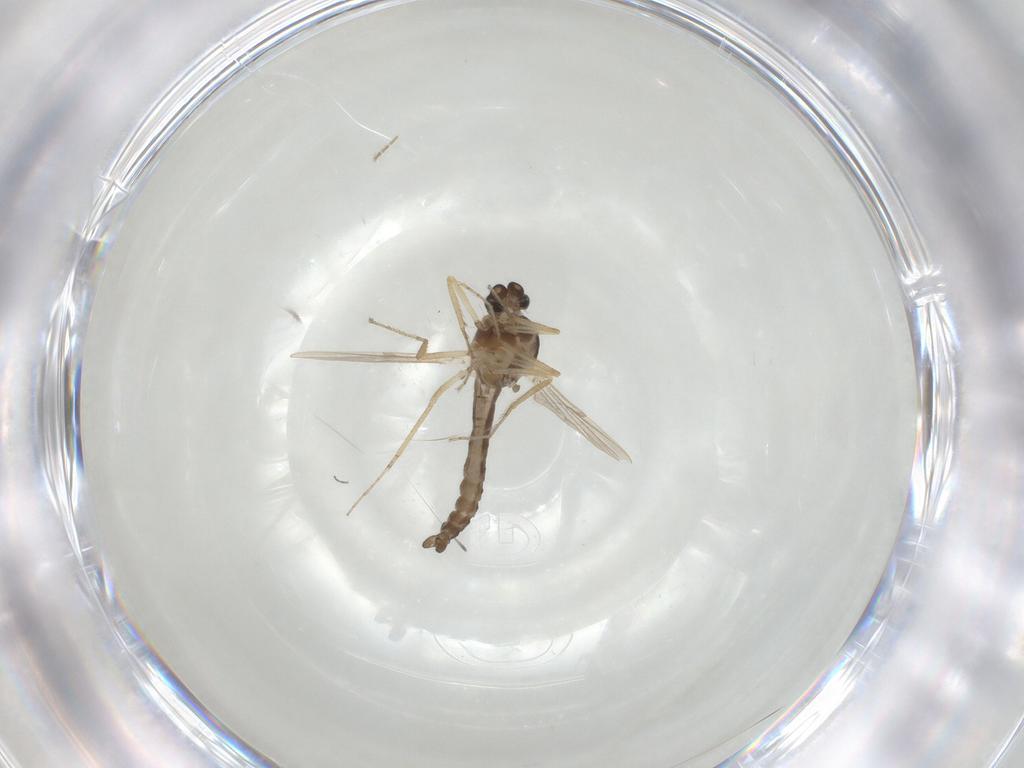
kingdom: Animalia
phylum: Arthropoda
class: Insecta
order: Diptera
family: Ceratopogonidae
